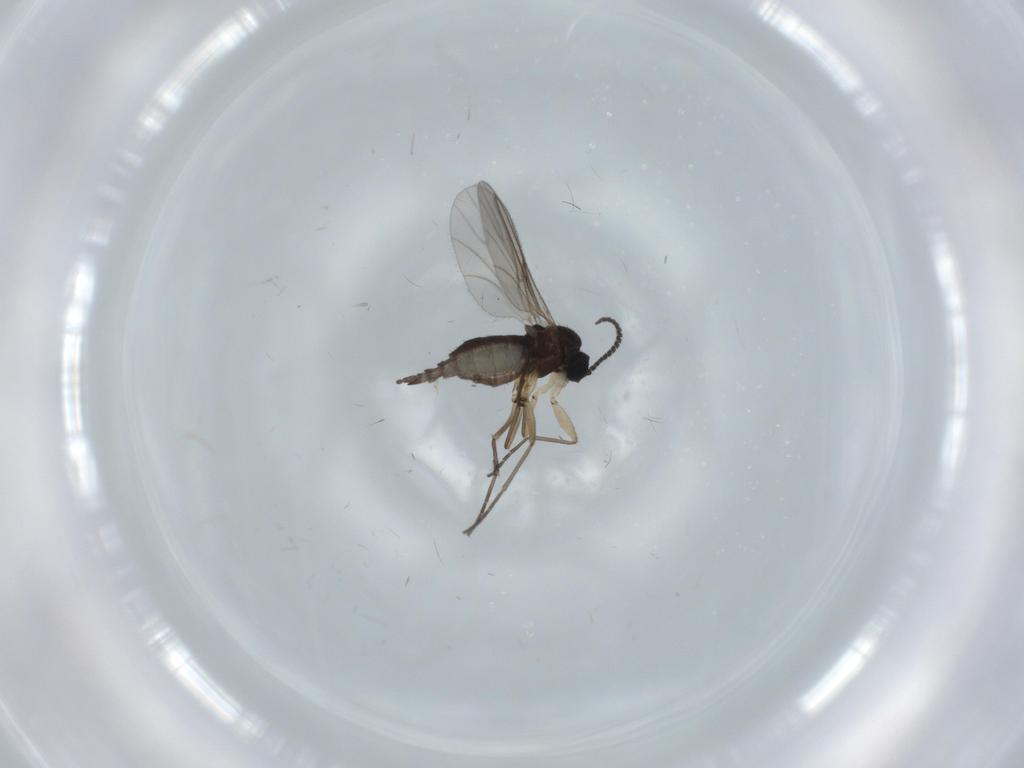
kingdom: Animalia
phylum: Arthropoda
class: Insecta
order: Diptera
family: Sciaridae
